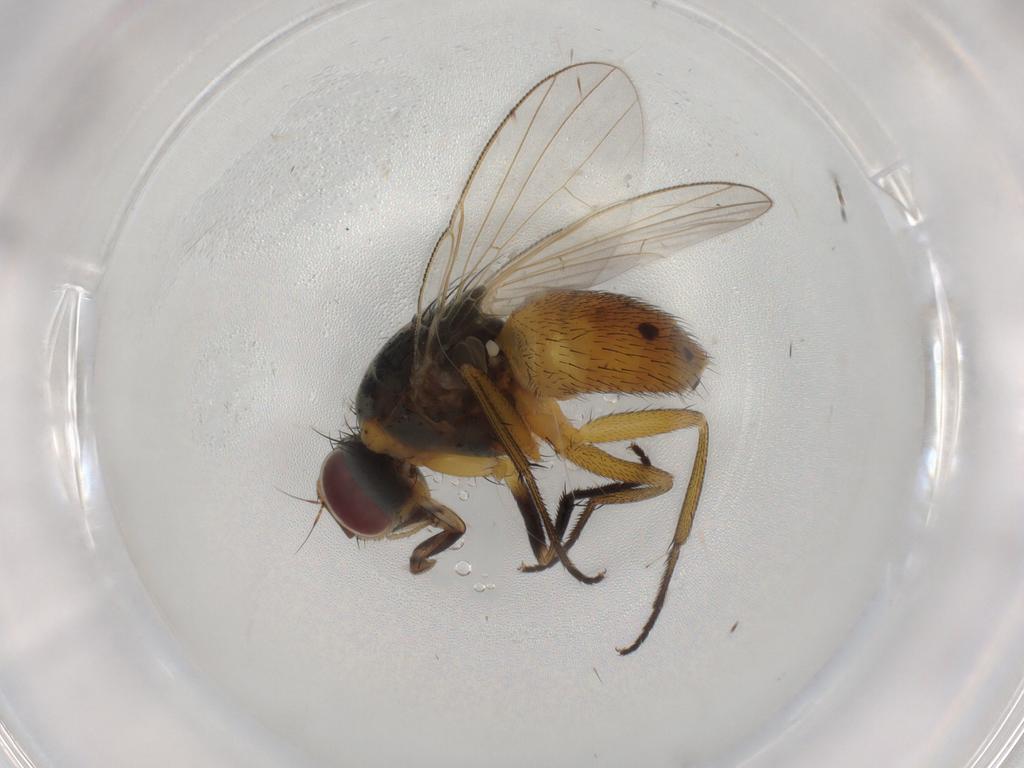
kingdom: Animalia
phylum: Arthropoda
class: Insecta
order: Diptera
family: Muscidae
